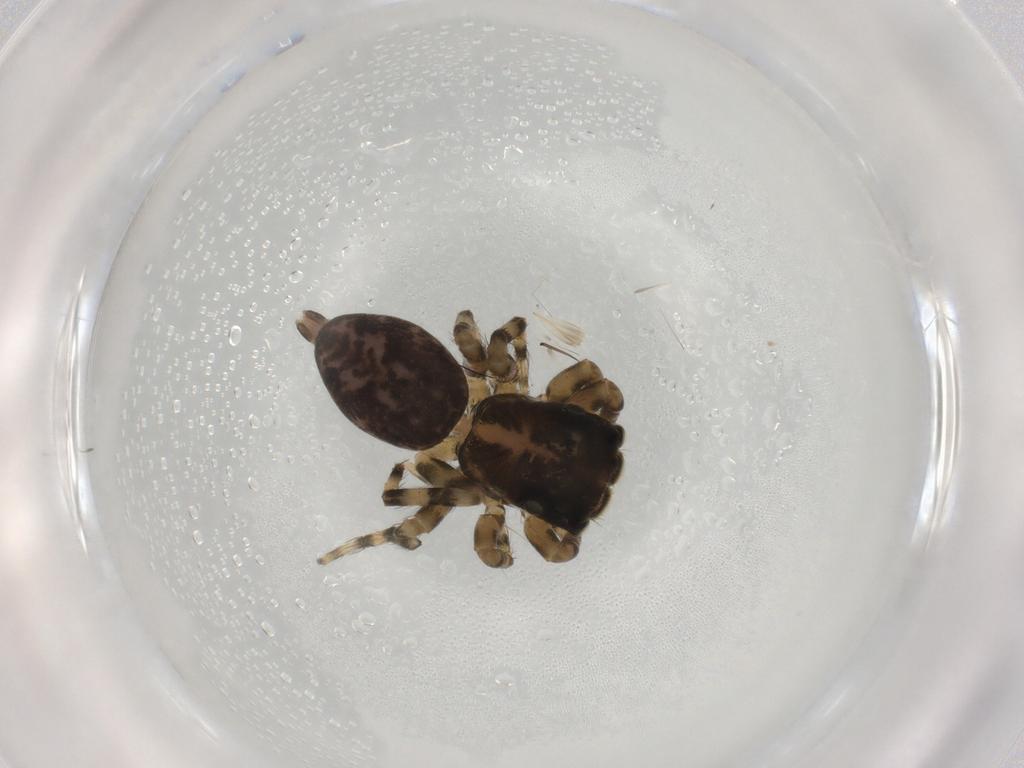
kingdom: Animalia
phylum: Arthropoda
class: Arachnida
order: Araneae
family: Salticidae
